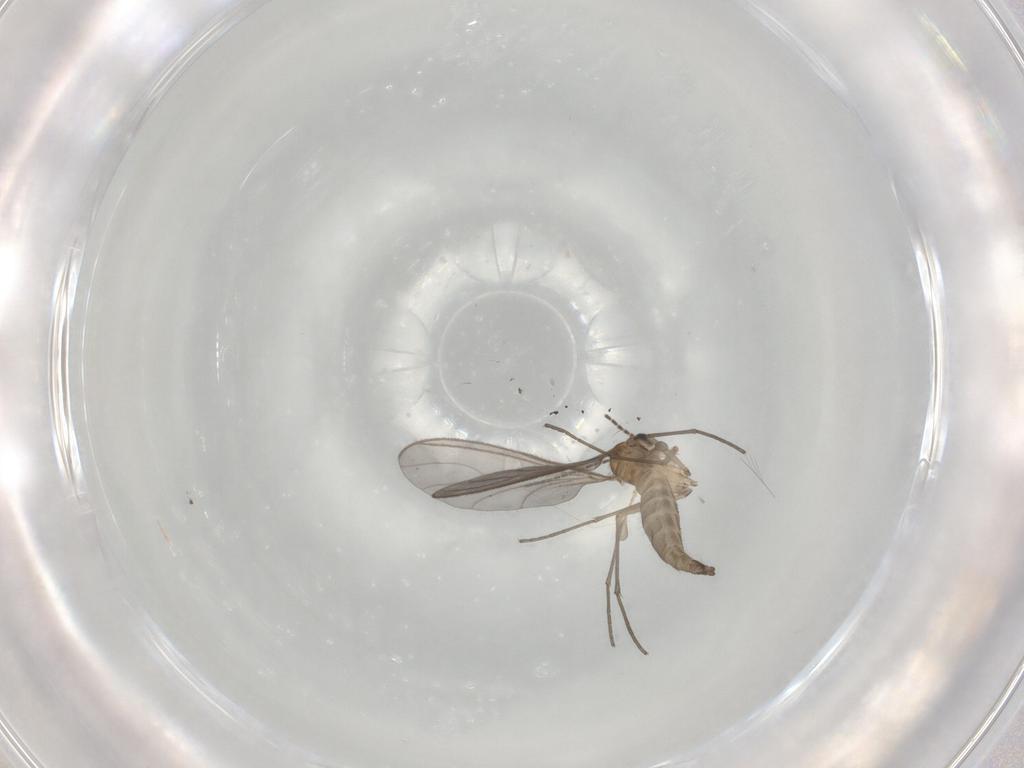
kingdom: Animalia
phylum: Arthropoda
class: Insecta
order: Diptera
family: Sciaridae
